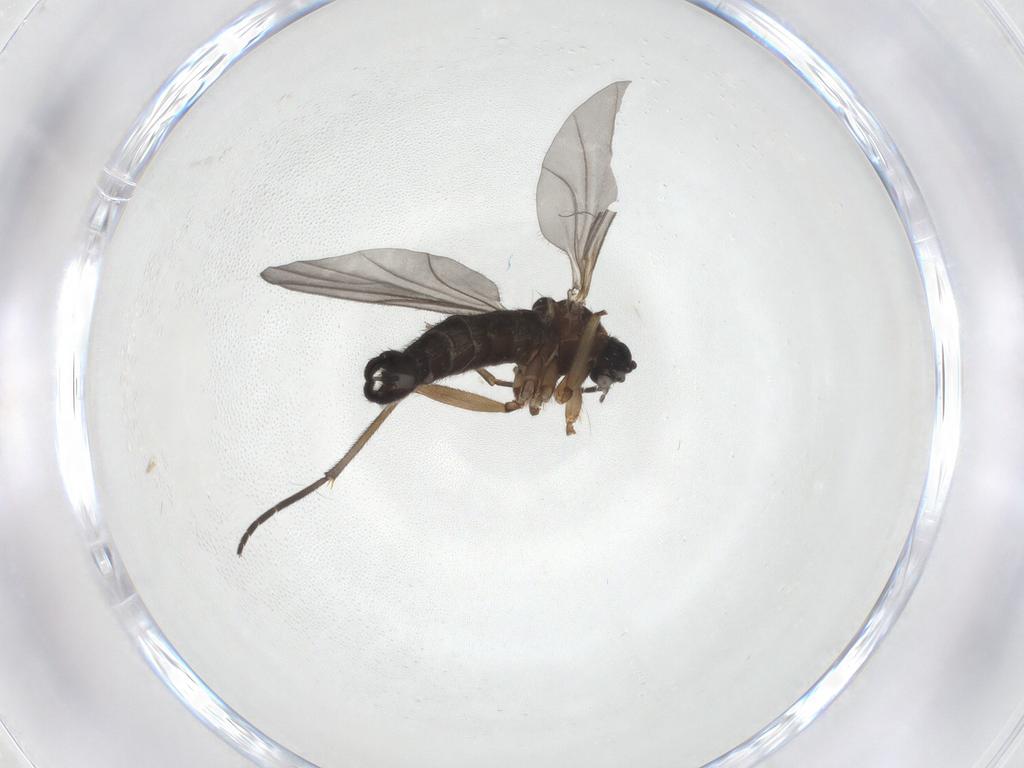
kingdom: Animalia
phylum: Arthropoda
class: Insecta
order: Diptera
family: Sciaridae
